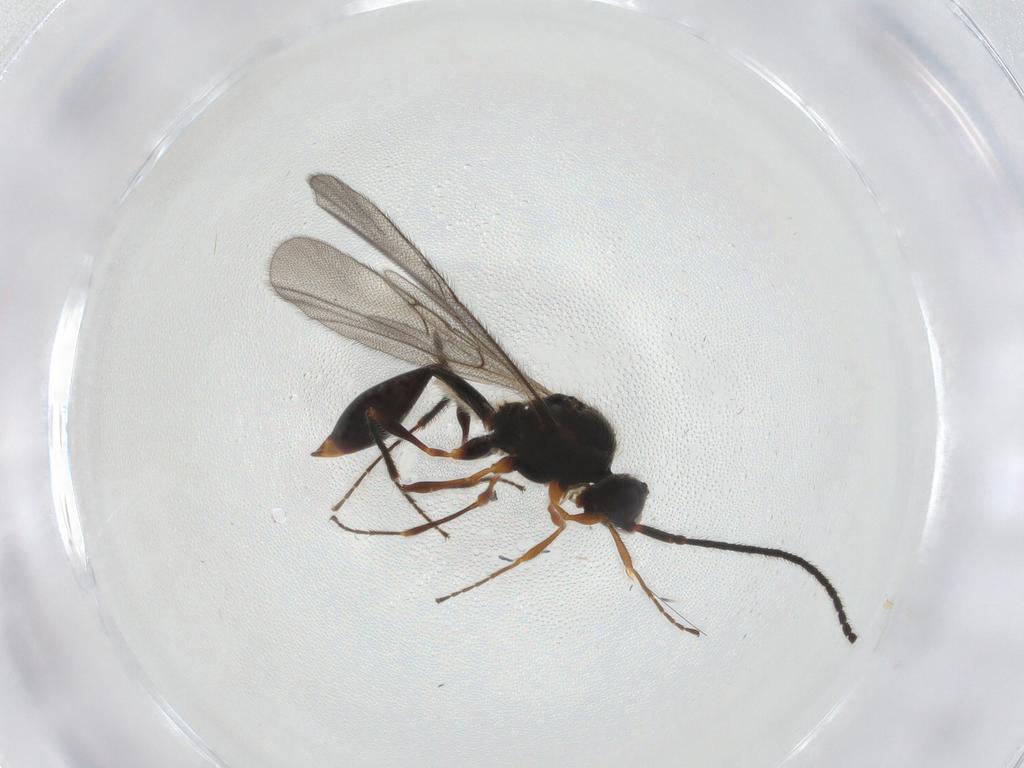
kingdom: Animalia
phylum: Arthropoda
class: Insecta
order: Hymenoptera
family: Diapriidae
